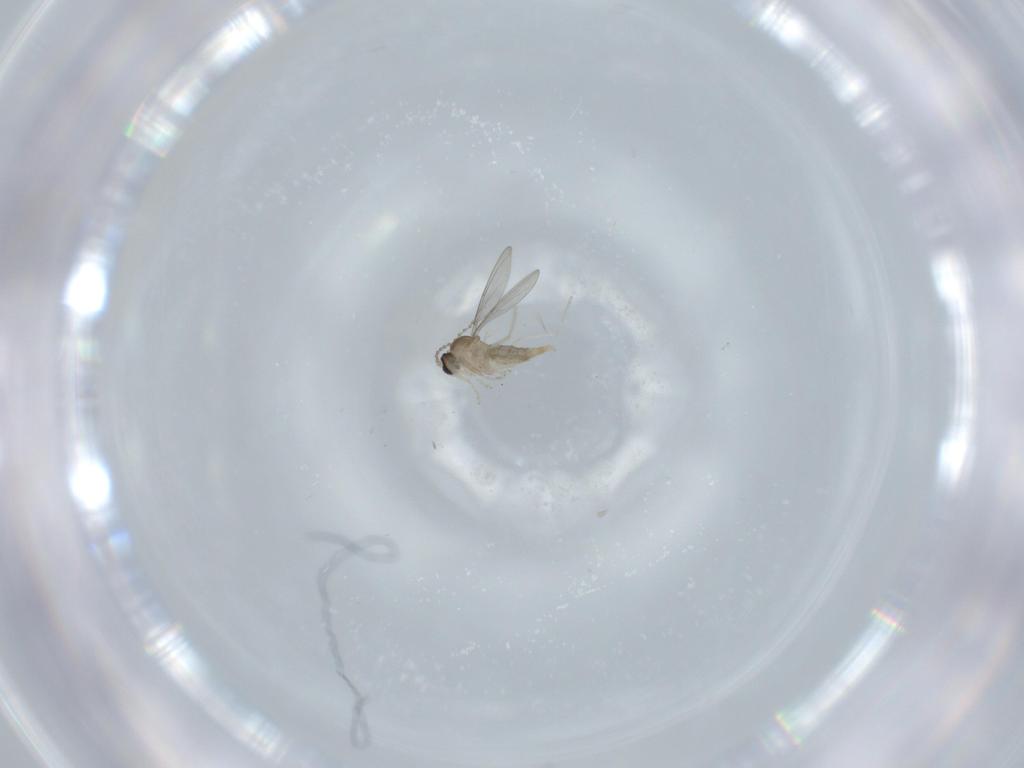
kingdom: Animalia
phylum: Arthropoda
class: Insecta
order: Diptera
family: Cecidomyiidae
